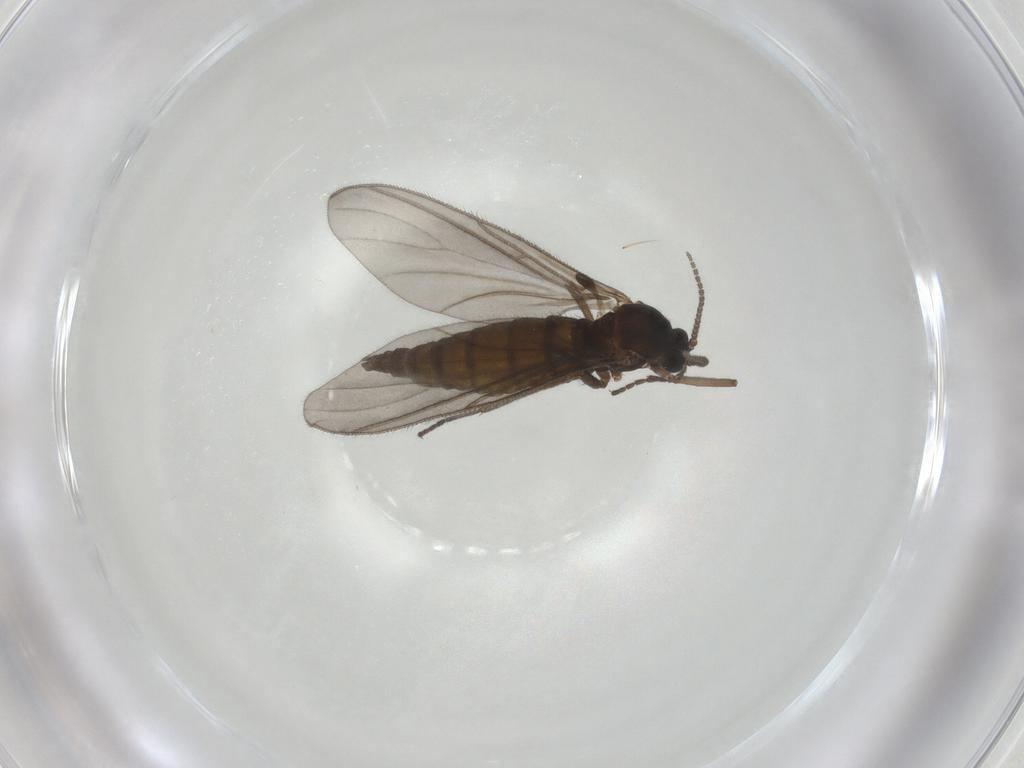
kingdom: Animalia
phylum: Arthropoda
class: Insecta
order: Diptera
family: Sciaridae
